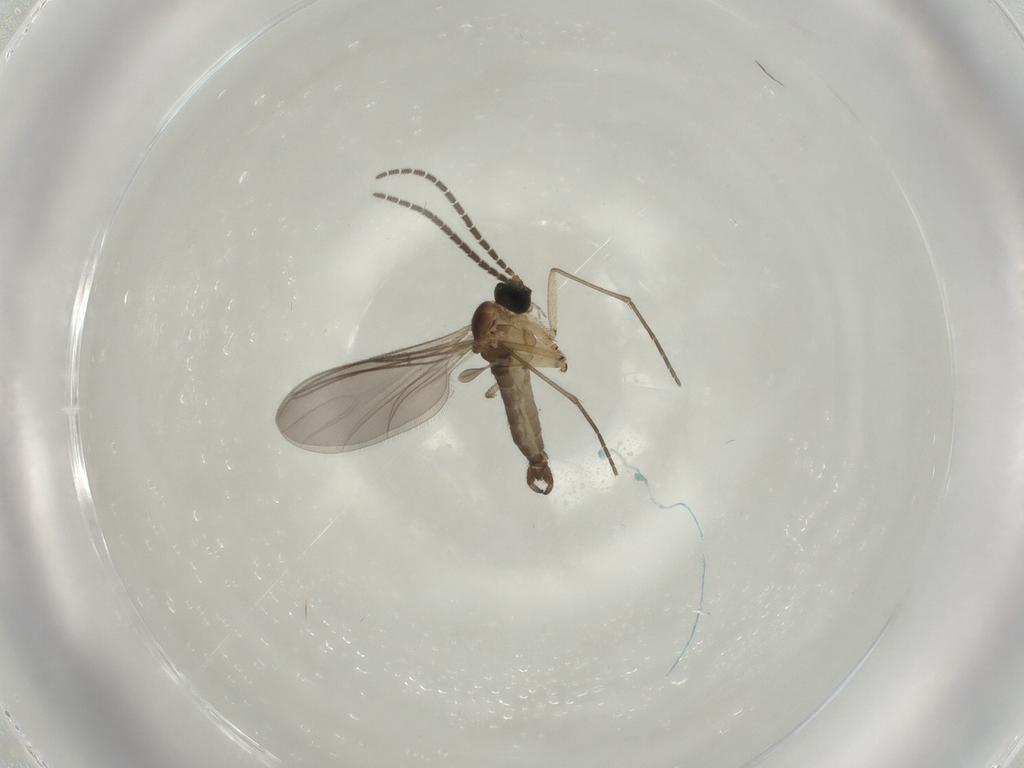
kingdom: Animalia
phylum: Arthropoda
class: Insecta
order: Diptera
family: Sciaridae
